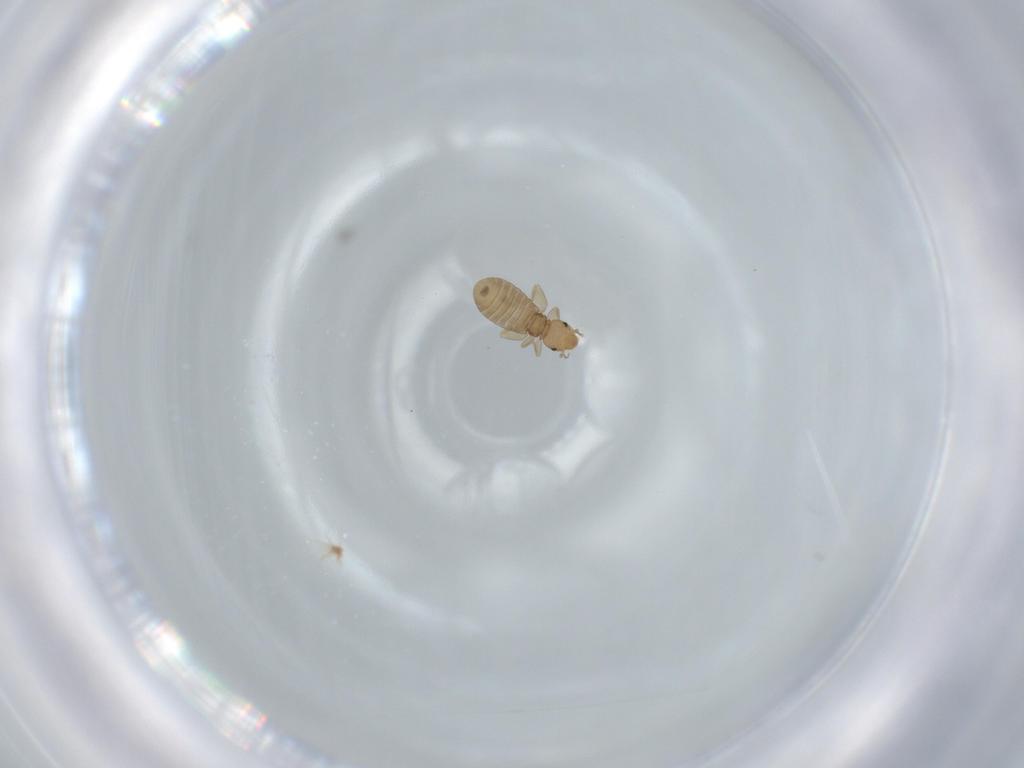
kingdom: Animalia
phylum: Arthropoda
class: Insecta
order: Psocodea
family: Liposcelididae
